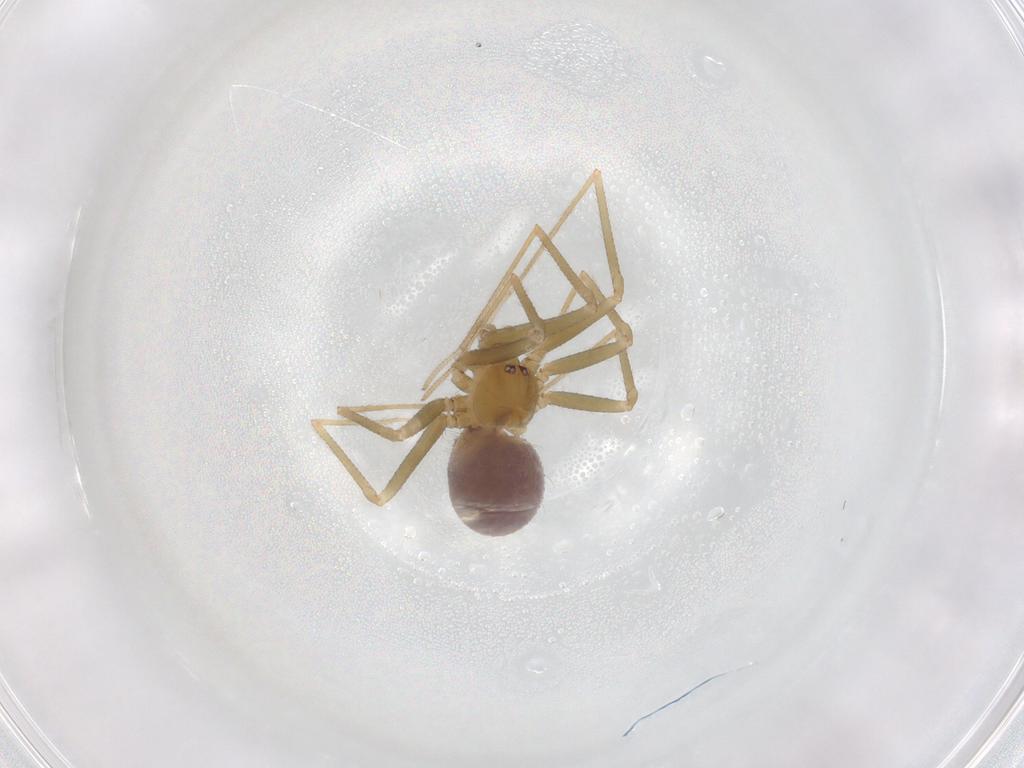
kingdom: Animalia
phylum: Arthropoda
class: Arachnida
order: Araneae
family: Pholcidae
